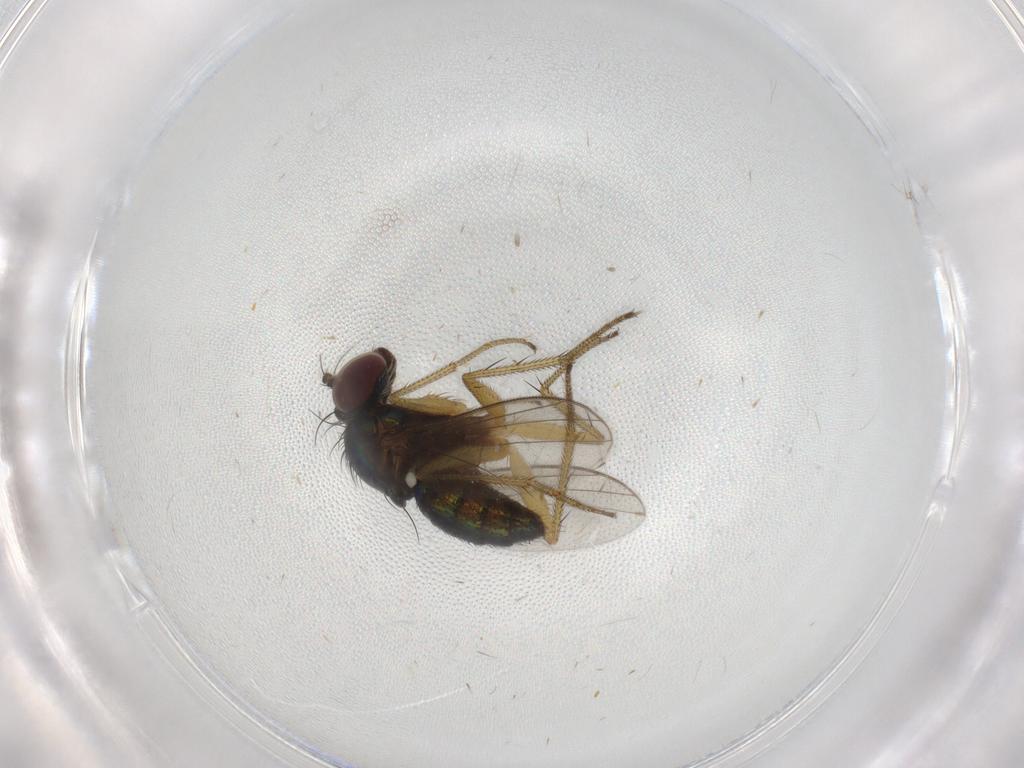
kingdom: Animalia
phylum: Arthropoda
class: Insecta
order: Diptera
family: Dolichopodidae
